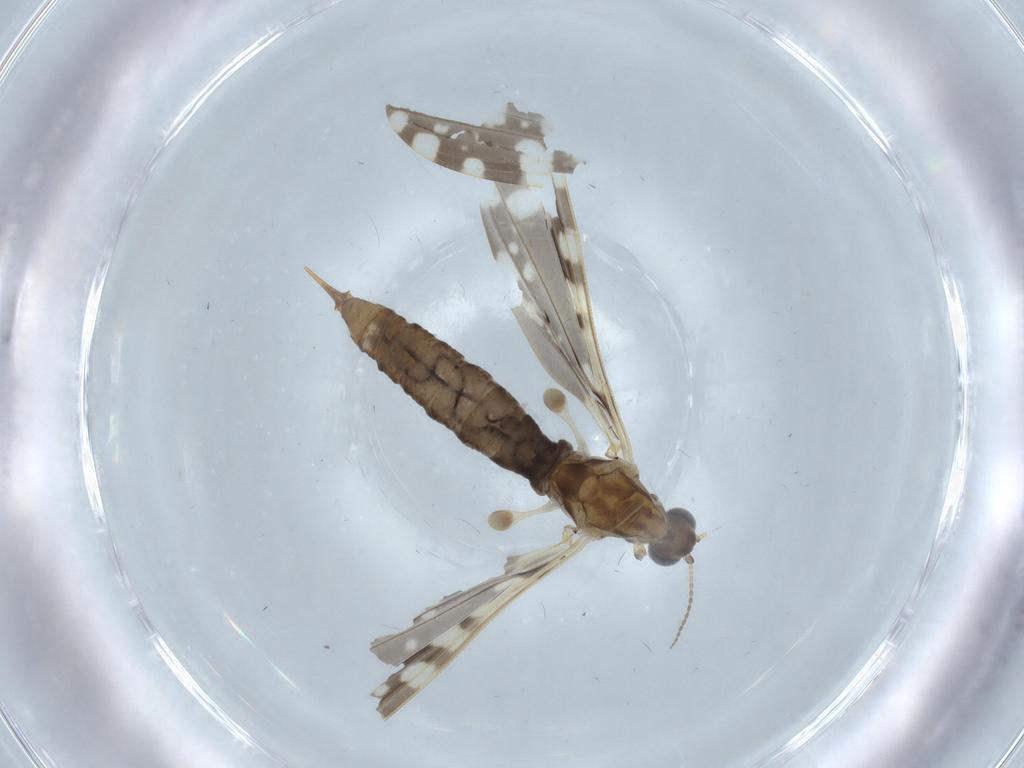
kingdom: Animalia
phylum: Arthropoda
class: Insecta
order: Diptera
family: Phoridae
